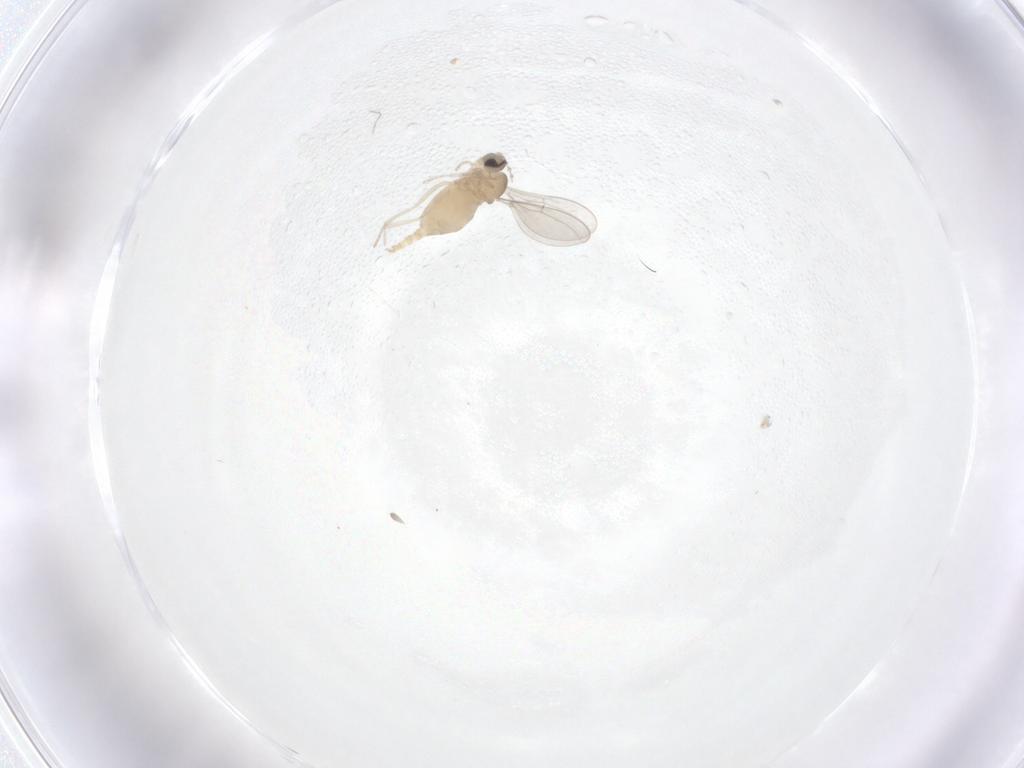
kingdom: Animalia
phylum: Arthropoda
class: Insecta
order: Diptera
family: Cecidomyiidae
